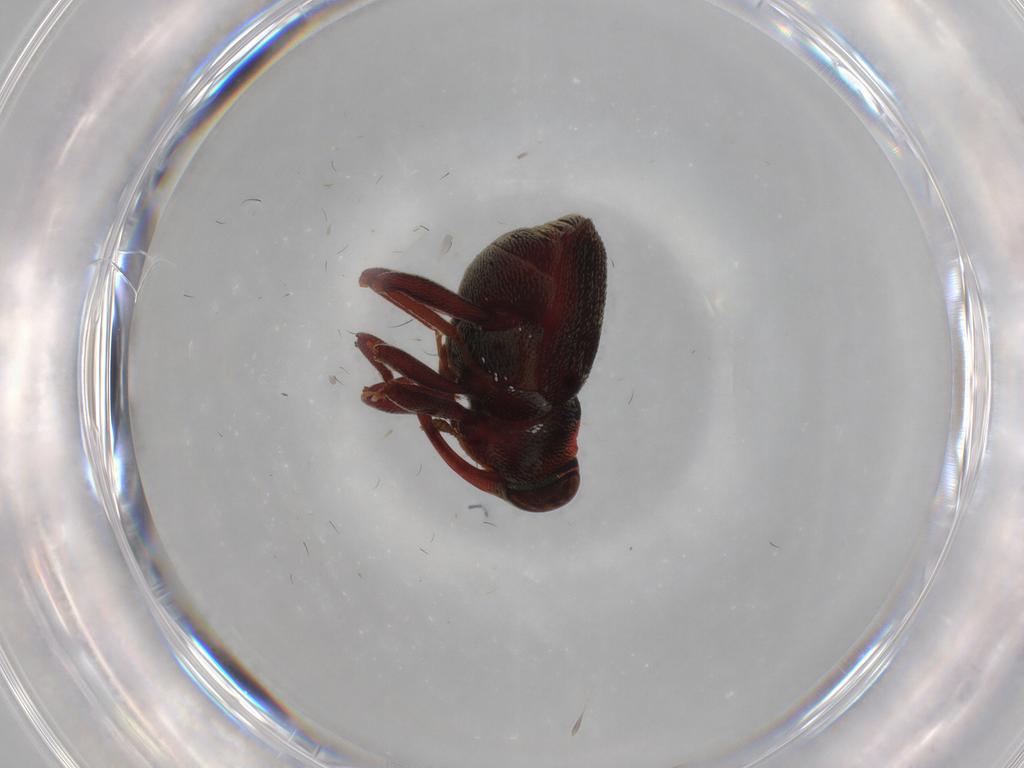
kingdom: Animalia
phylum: Arthropoda
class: Insecta
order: Coleoptera
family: Curculionidae
